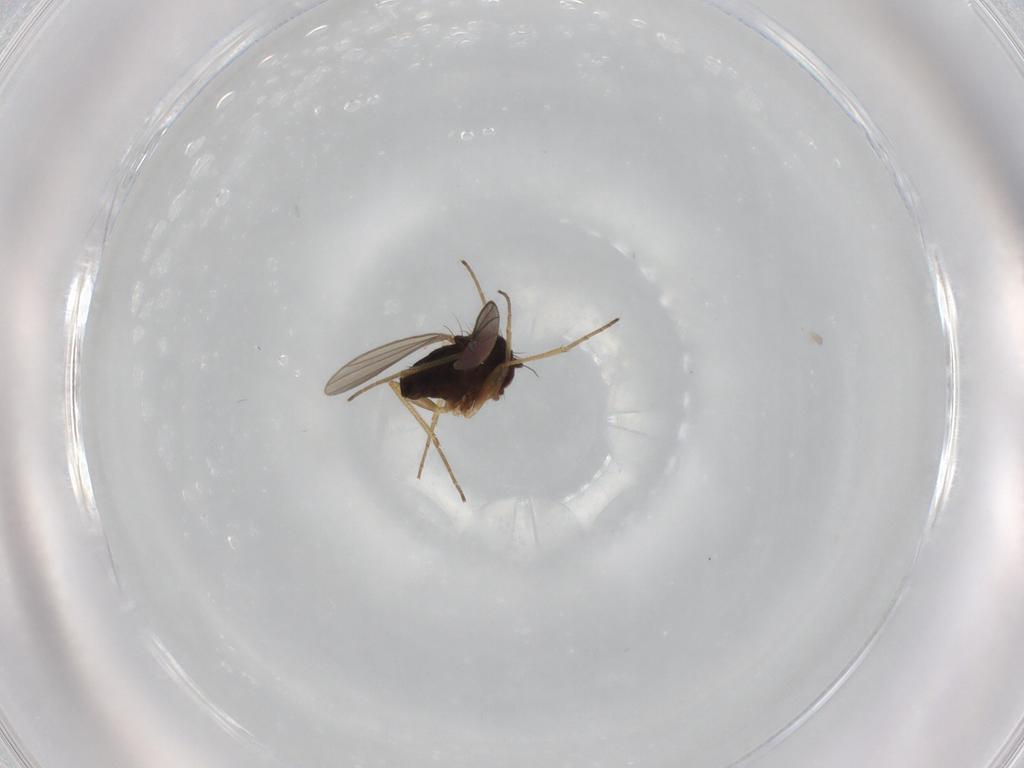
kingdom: Animalia
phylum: Arthropoda
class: Insecta
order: Diptera
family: Dolichopodidae
